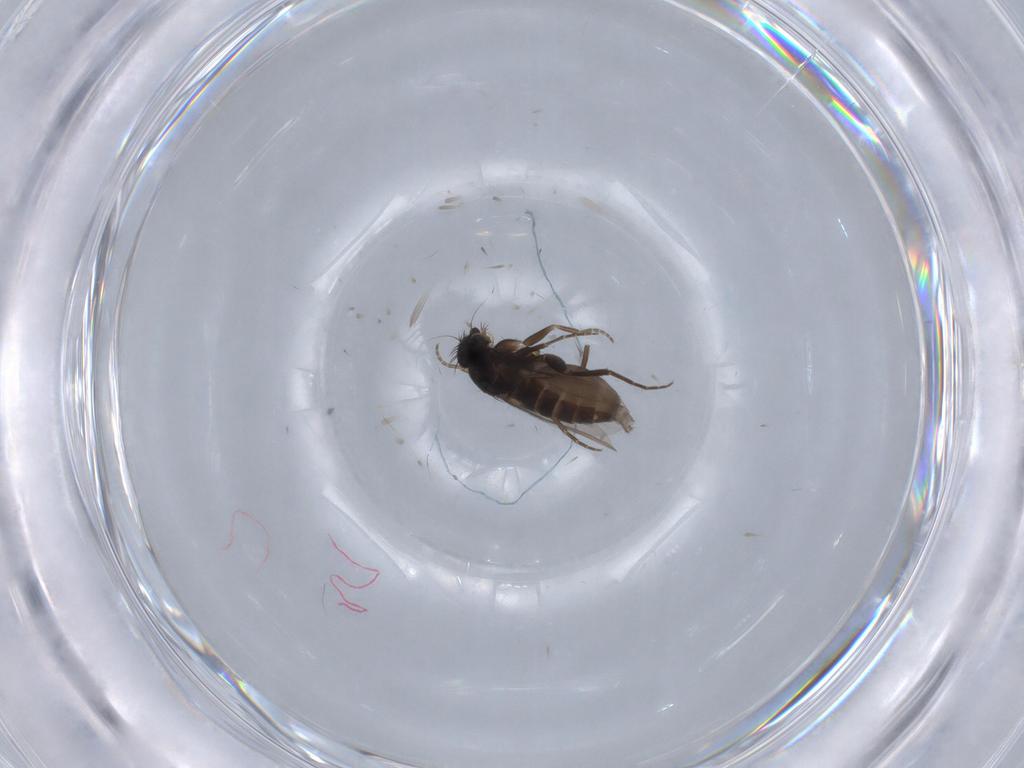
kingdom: Animalia
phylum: Arthropoda
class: Insecta
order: Diptera
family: Phoridae
